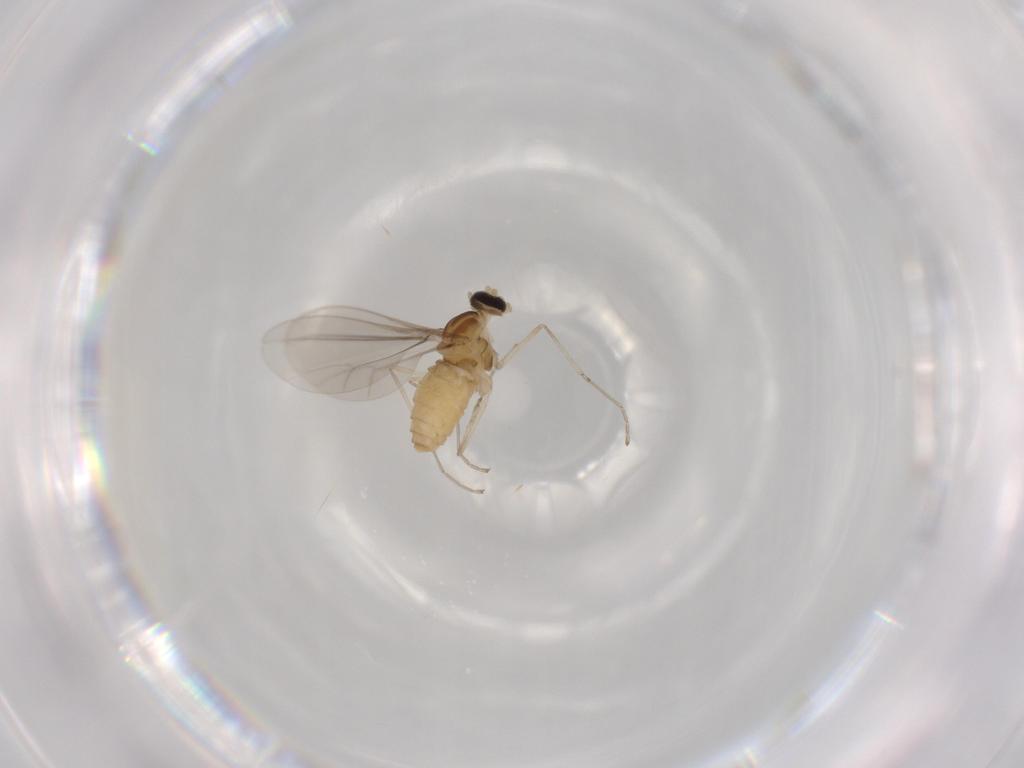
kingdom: Animalia
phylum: Arthropoda
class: Insecta
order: Diptera
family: Cecidomyiidae
